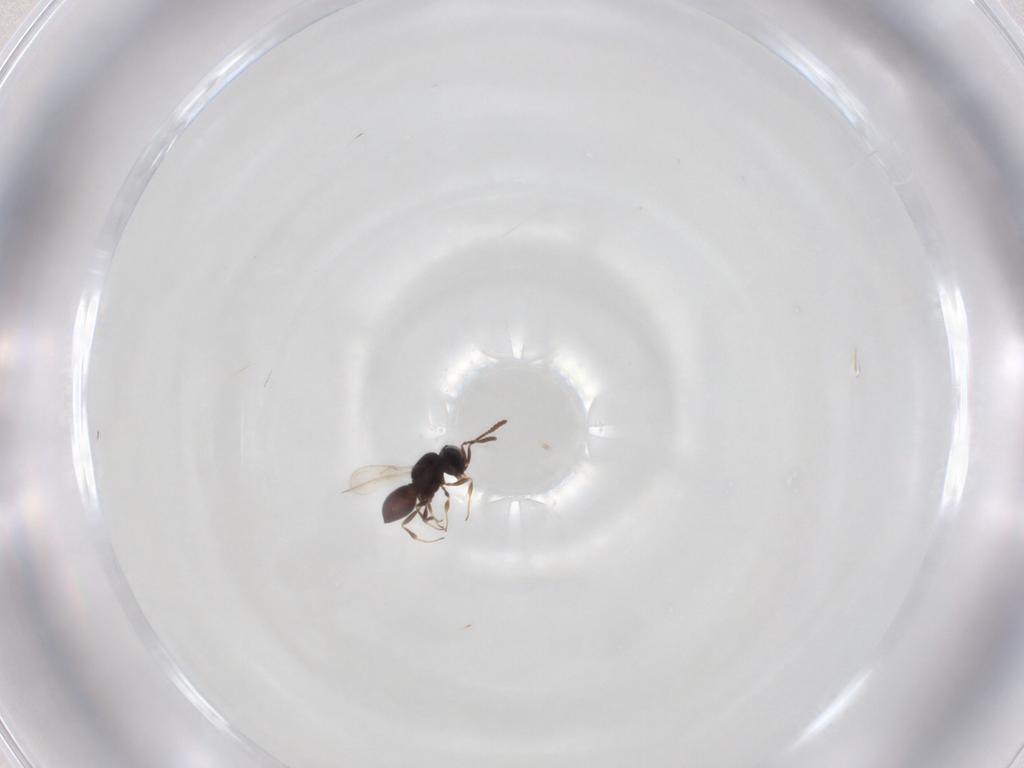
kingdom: Animalia
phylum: Arthropoda
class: Insecta
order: Hymenoptera
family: Scelionidae
